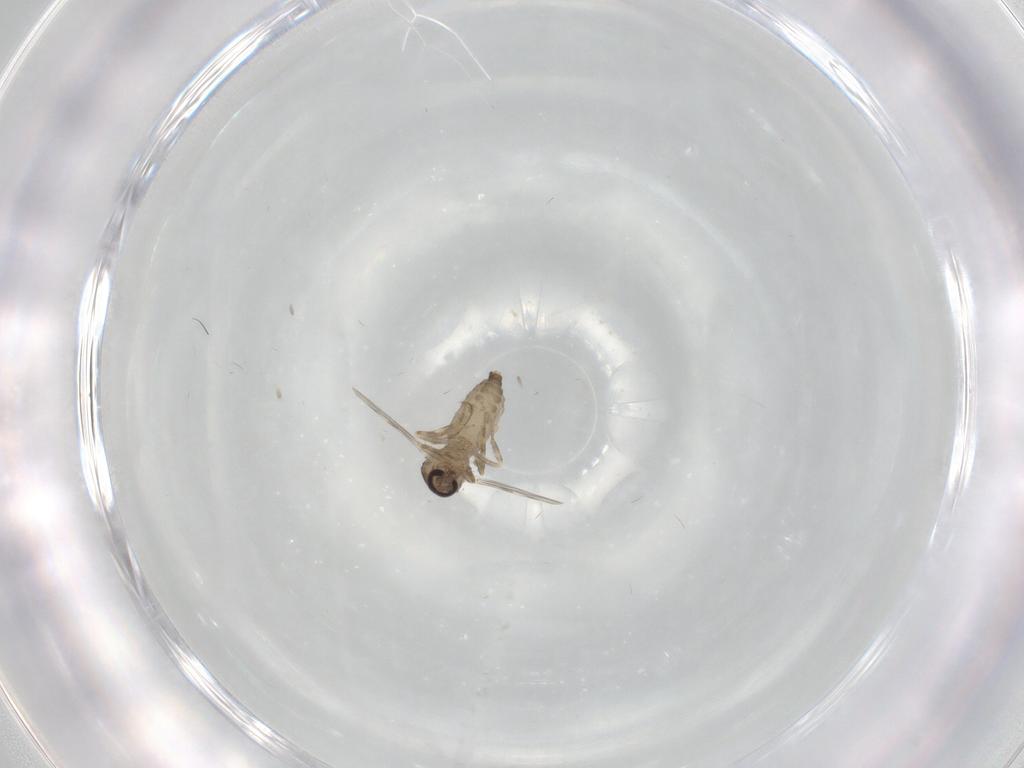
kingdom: Animalia
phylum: Arthropoda
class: Insecta
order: Diptera
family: Ceratopogonidae
